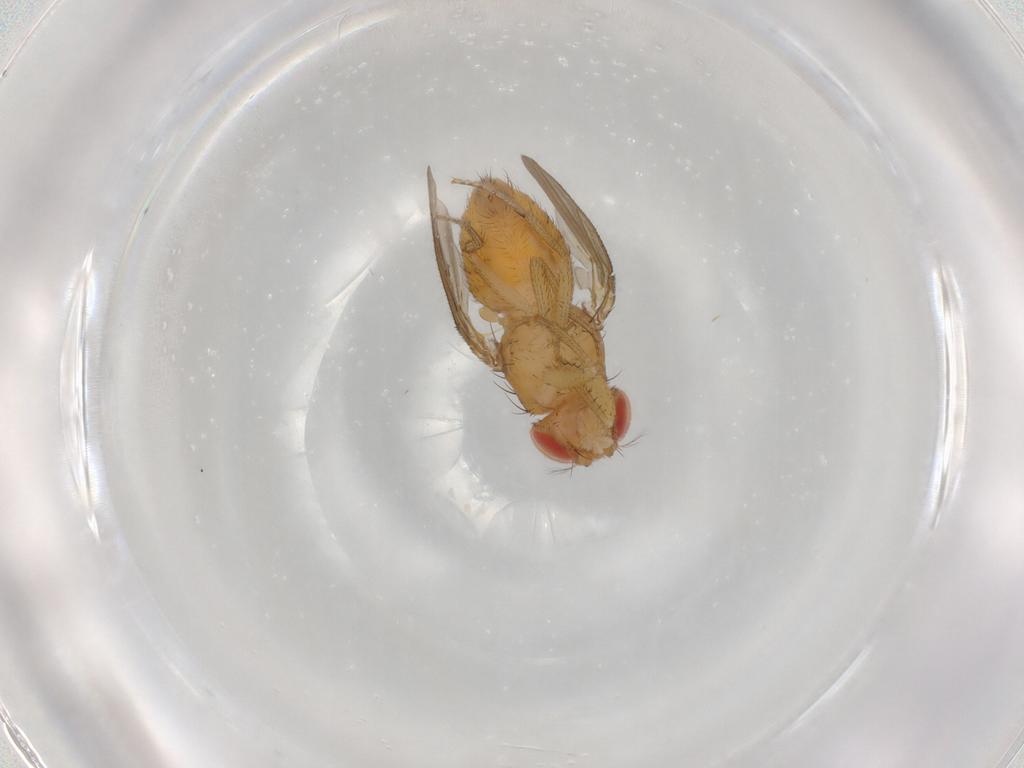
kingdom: Animalia
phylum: Arthropoda
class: Insecta
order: Diptera
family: Drosophilidae
